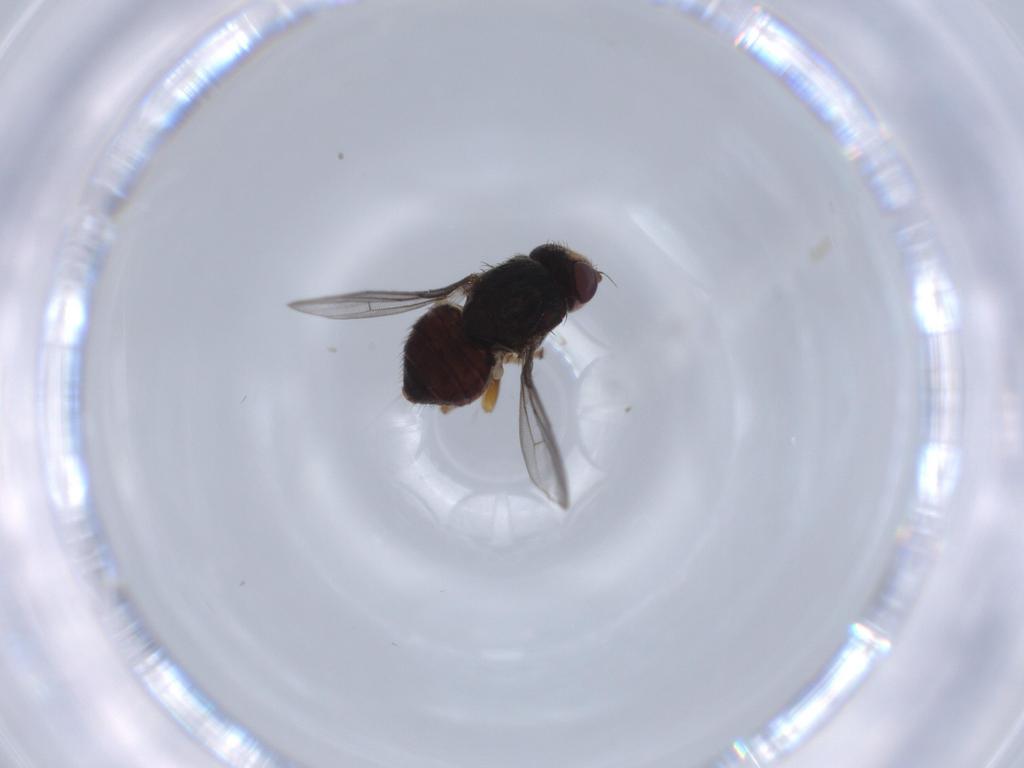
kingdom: Animalia
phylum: Arthropoda
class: Insecta
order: Diptera
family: Chloropidae
